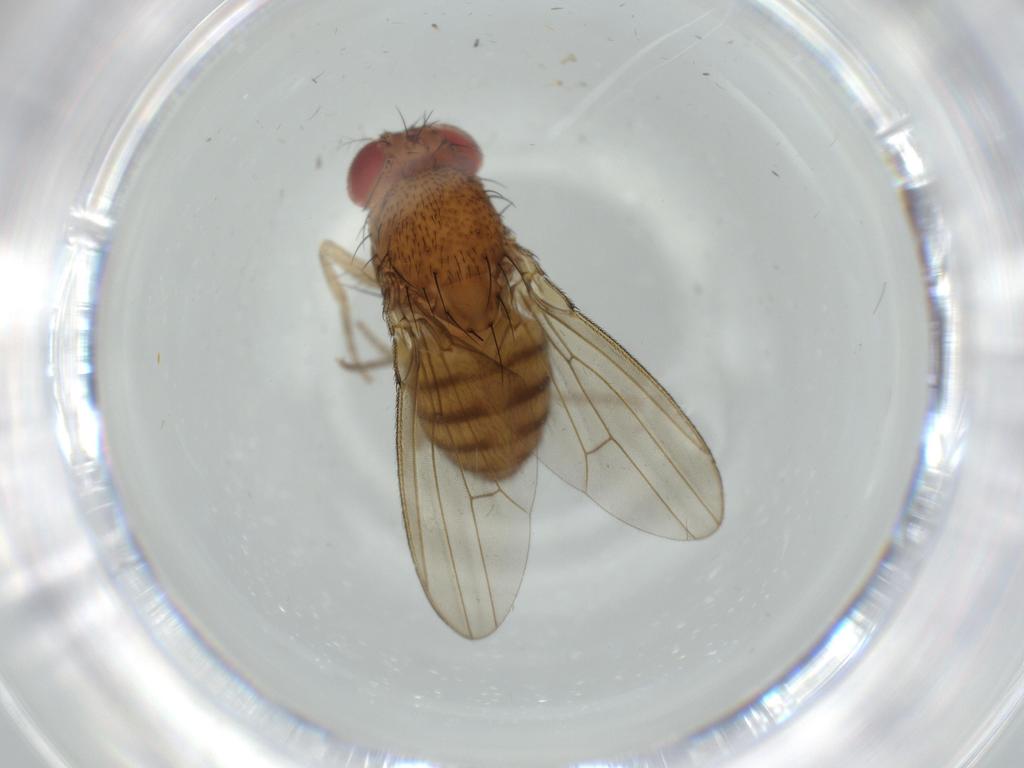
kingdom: Animalia
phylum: Arthropoda
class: Insecta
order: Diptera
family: Drosophilidae
